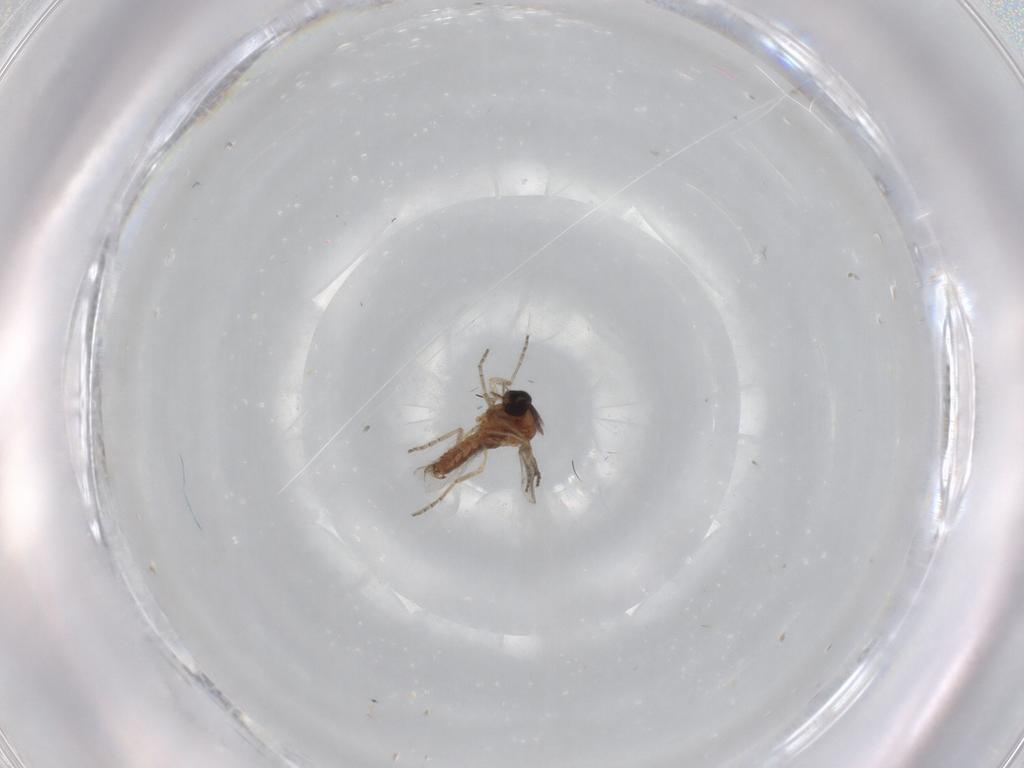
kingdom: Animalia
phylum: Arthropoda
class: Insecta
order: Diptera
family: Ceratopogonidae
